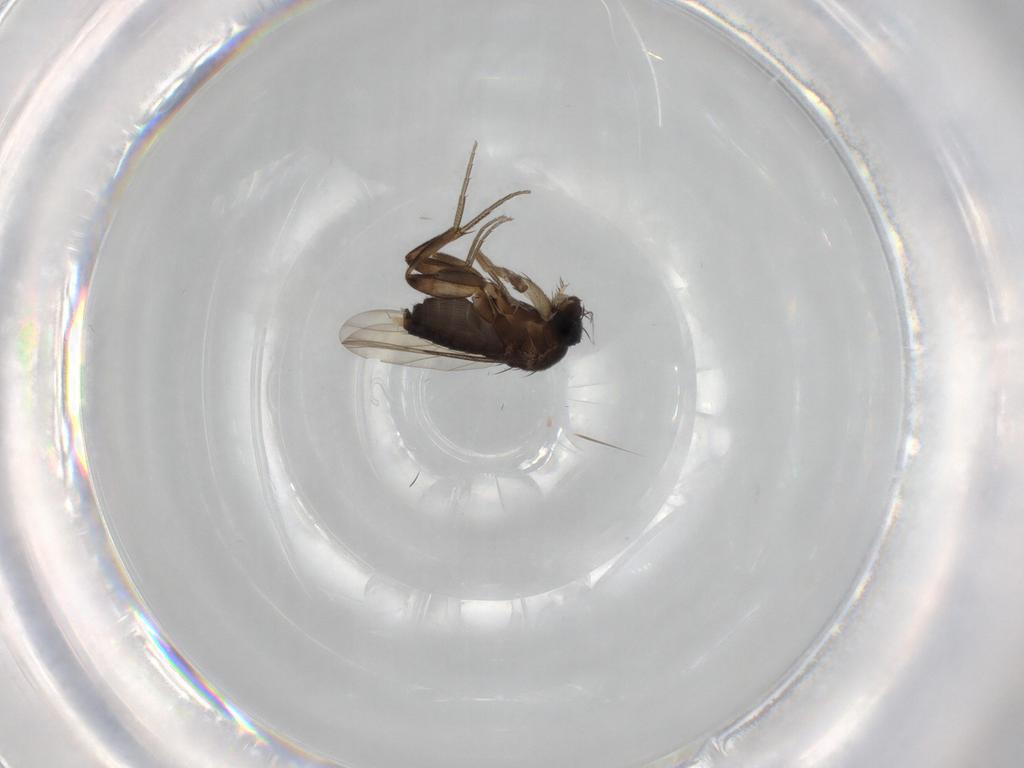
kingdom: Animalia
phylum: Arthropoda
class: Insecta
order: Diptera
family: Phoridae
